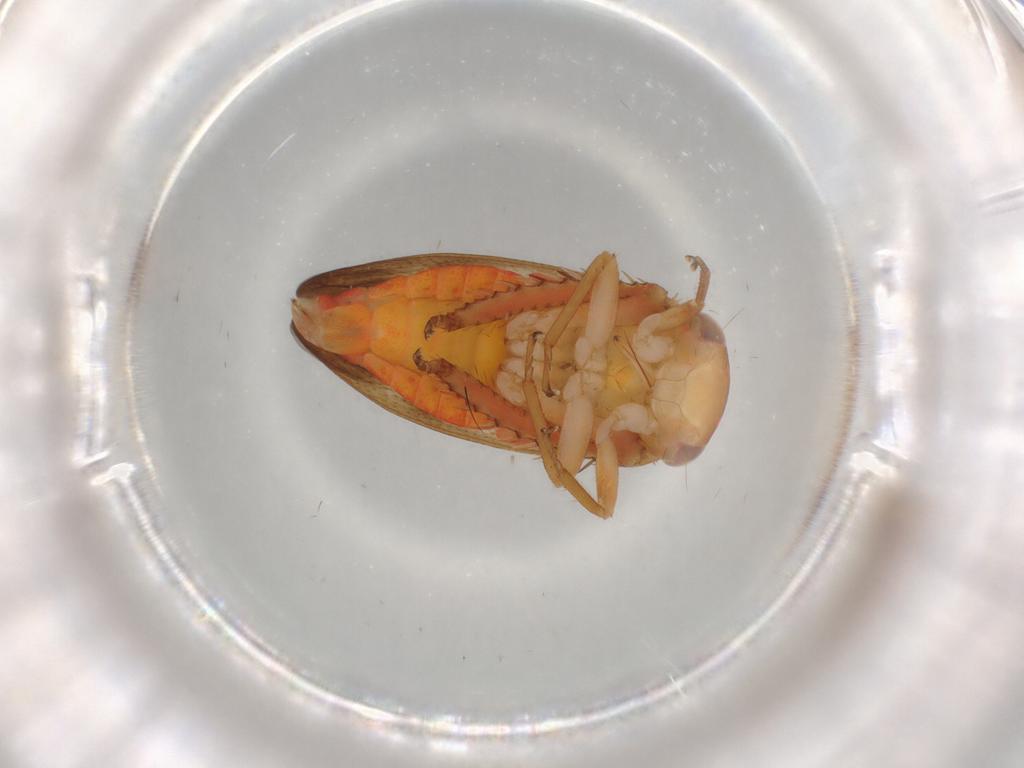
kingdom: Animalia
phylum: Arthropoda
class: Insecta
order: Hemiptera
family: Cicadellidae
